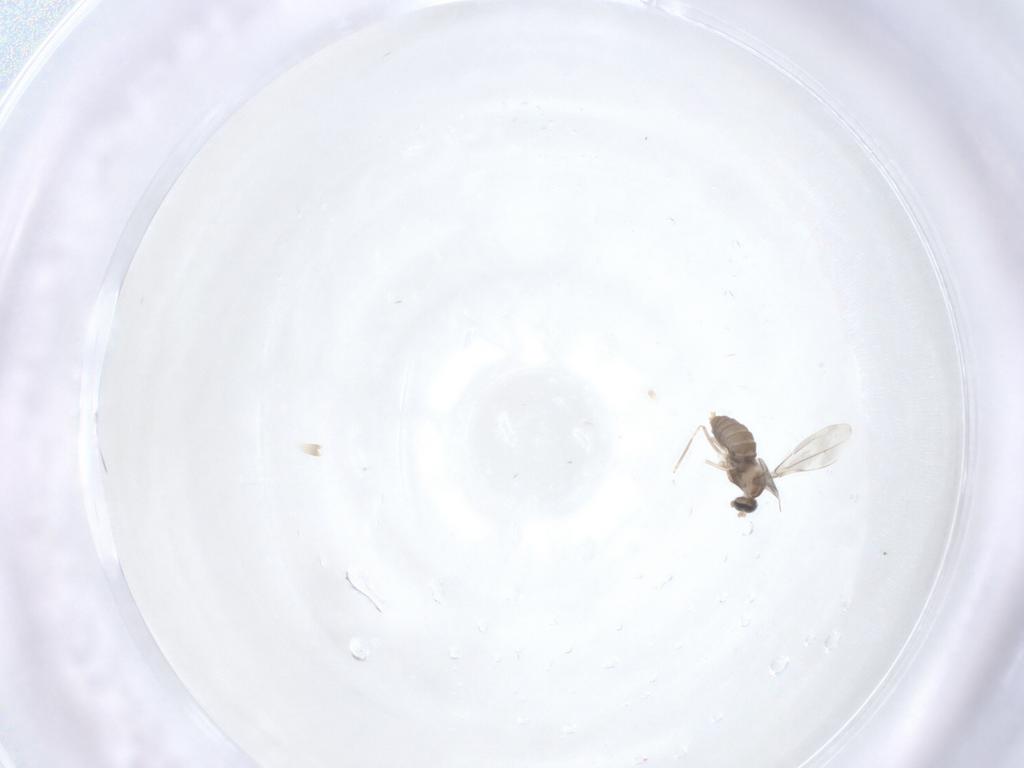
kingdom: Animalia
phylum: Arthropoda
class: Insecta
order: Diptera
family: Cecidomyiidae
